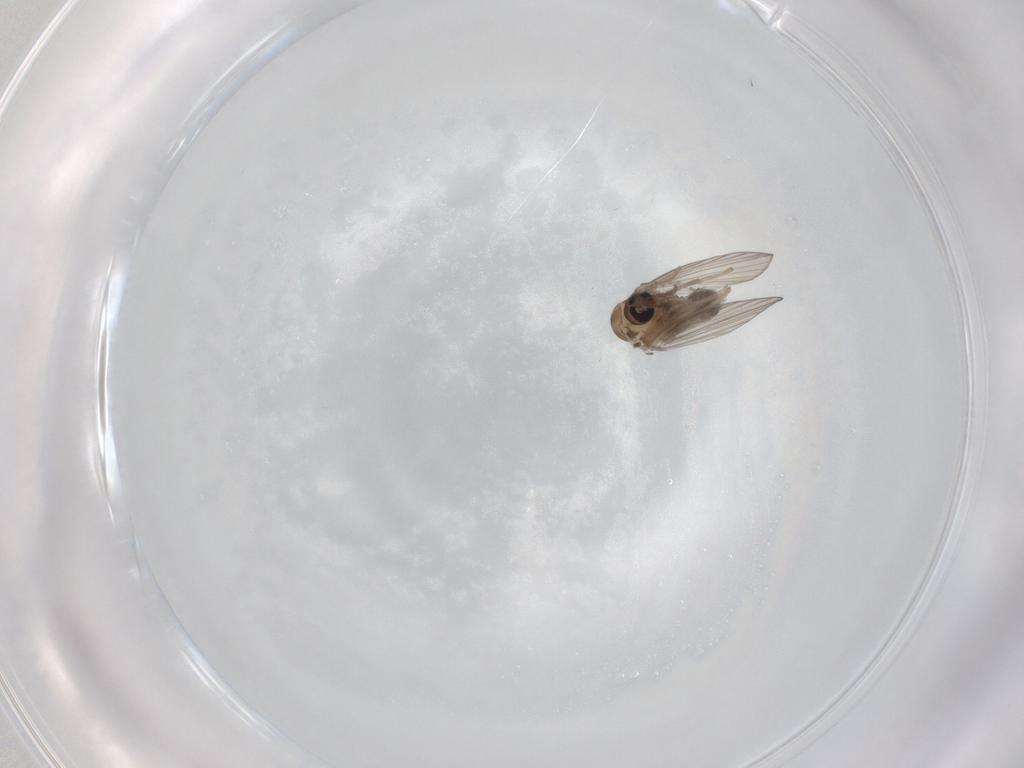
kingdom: Animalia
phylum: Arthropoda
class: Insecta
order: Diptera
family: Psychodidae
